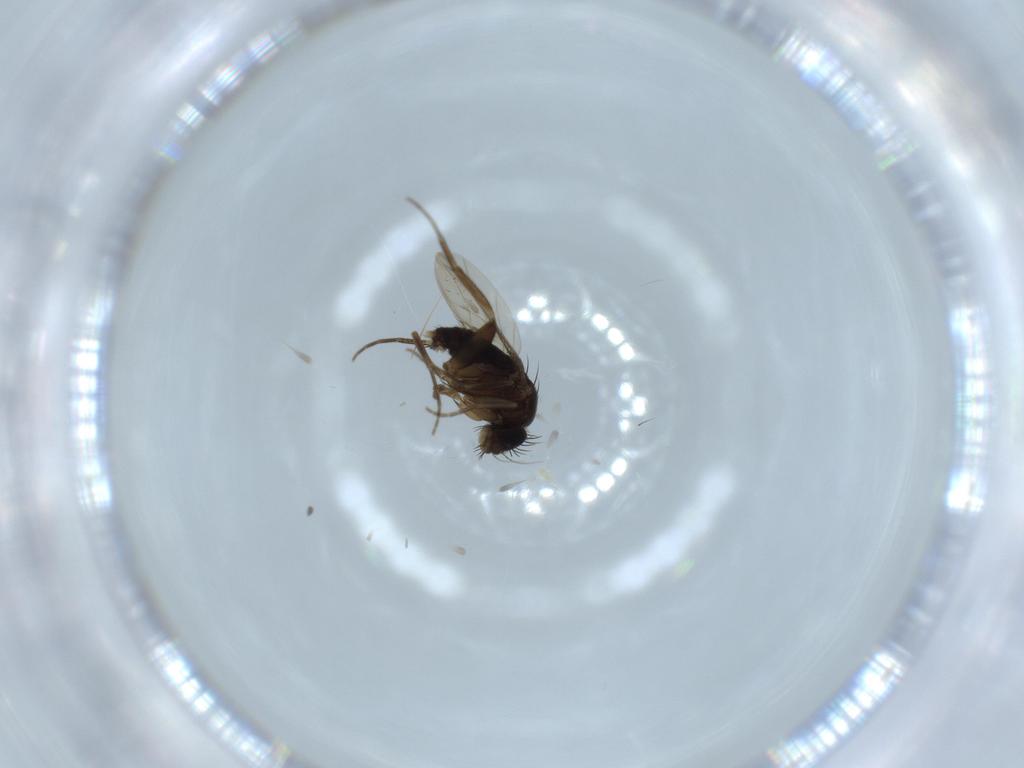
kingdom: Animalia
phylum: Arthropoda
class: Insecta
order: Diptera
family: Phoridae
